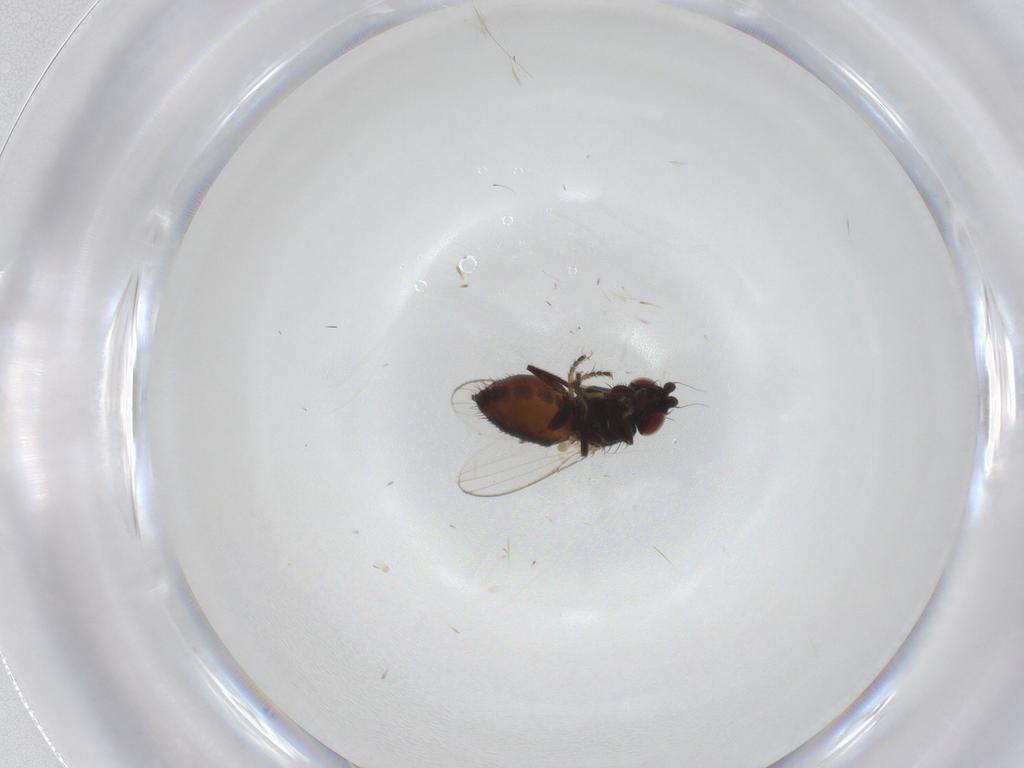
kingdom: Animalia
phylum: Arthropoda
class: Insecta
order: Diptera
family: Milichiidae
